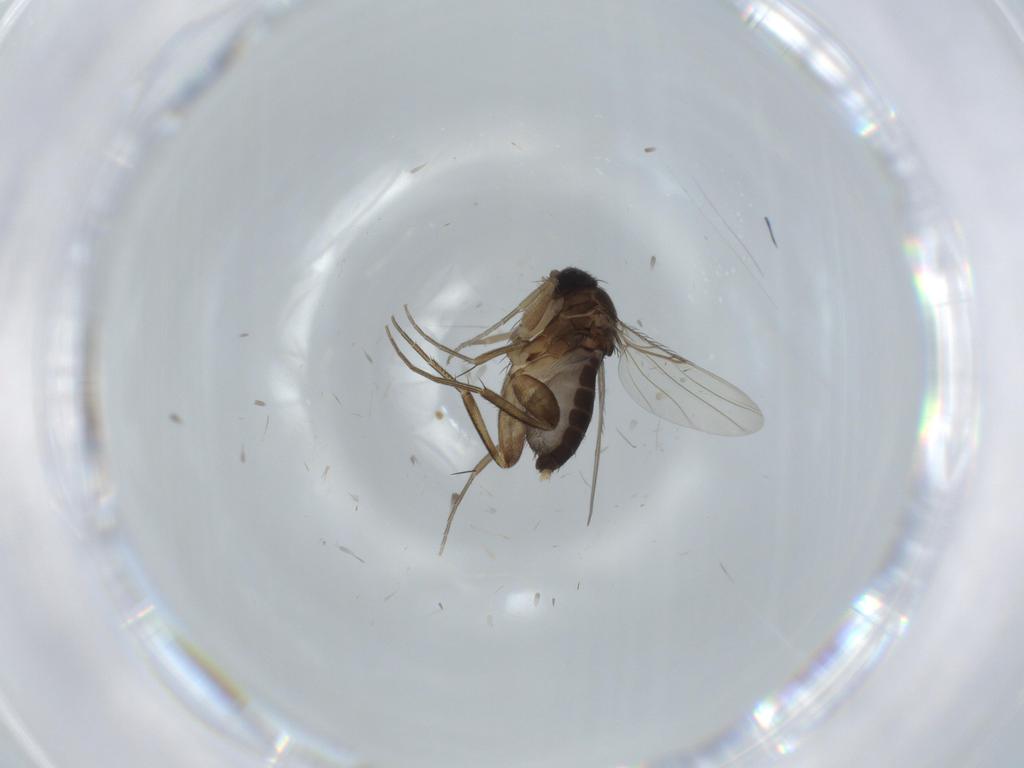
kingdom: Animalia
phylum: Arthropoda
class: Insecta
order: Diptera
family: Phoridae
